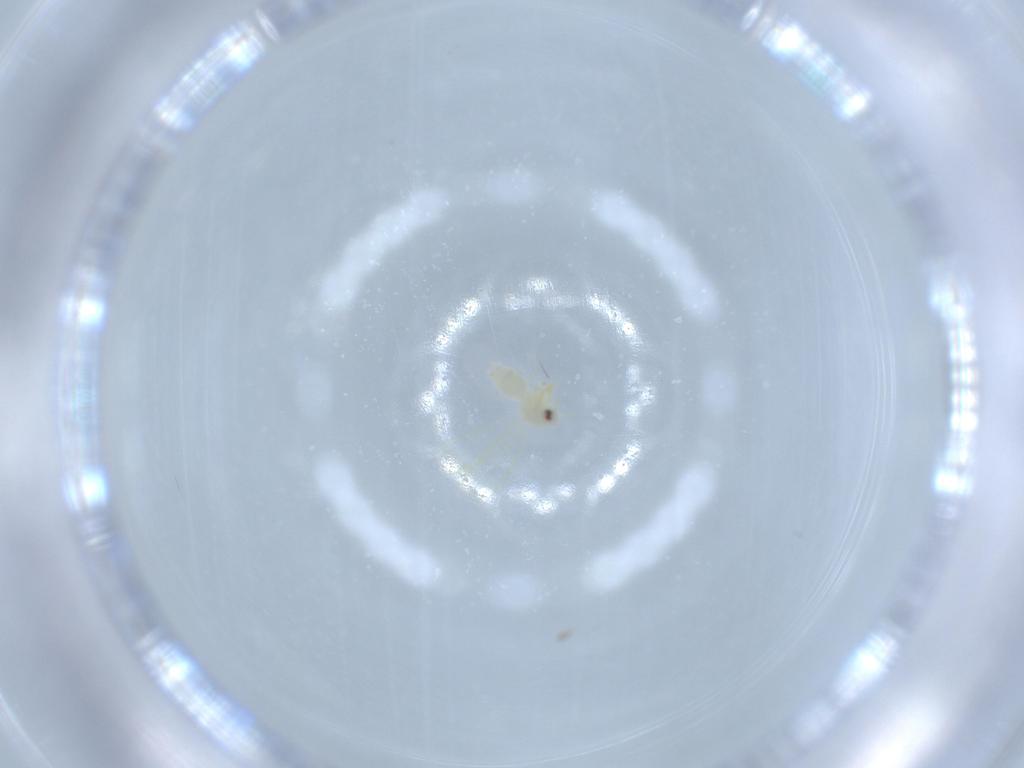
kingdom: Animalia
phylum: Arthropoda
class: Insecta
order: Hemiptera
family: Aleyrodidae
